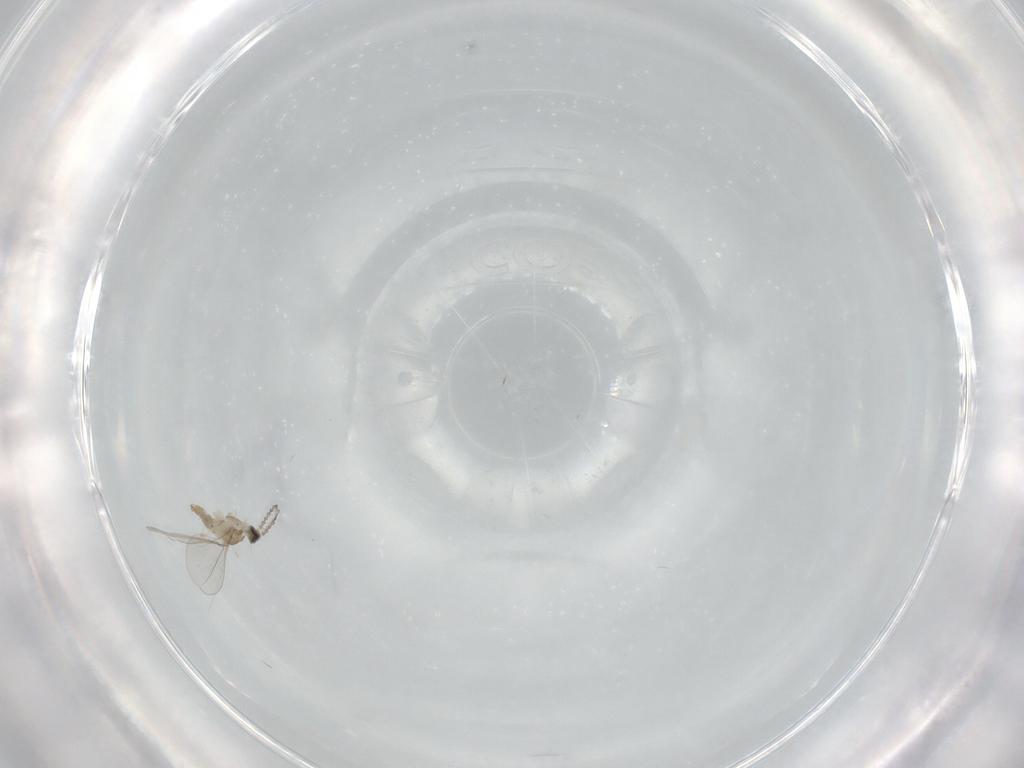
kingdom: Animalia
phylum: Arthropoda
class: Insecta
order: Diptera
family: Cecidomyiidae
